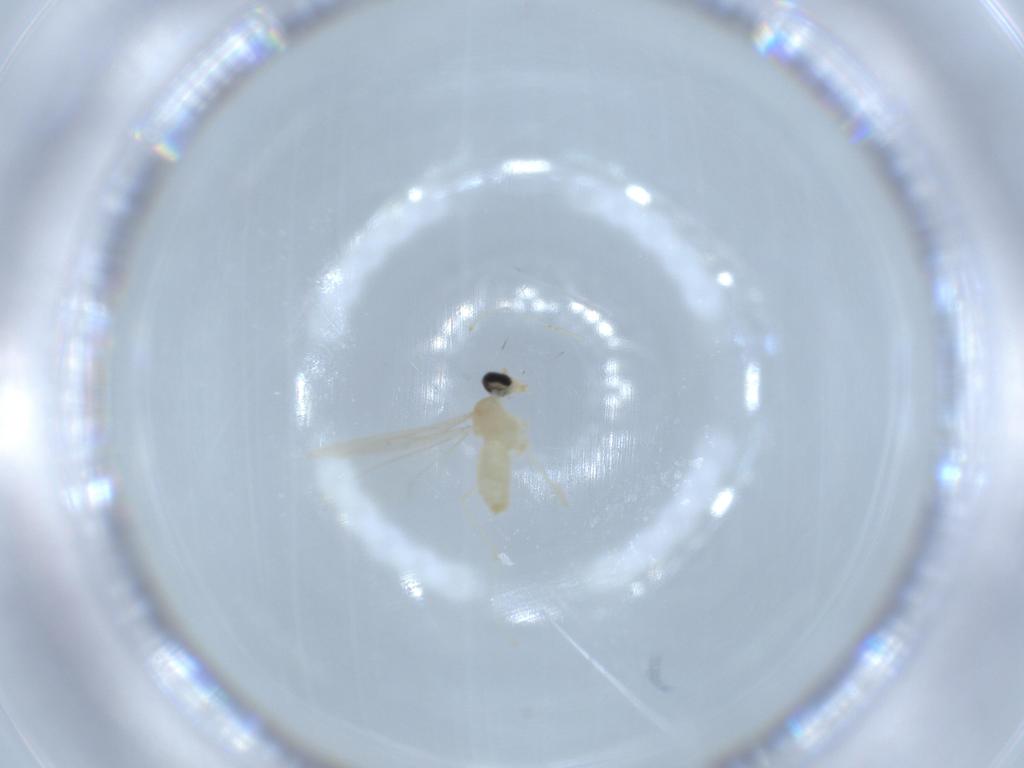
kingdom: Animalia
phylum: Arthropoda
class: Insecta
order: Diptera
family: Cecidomyiidae
